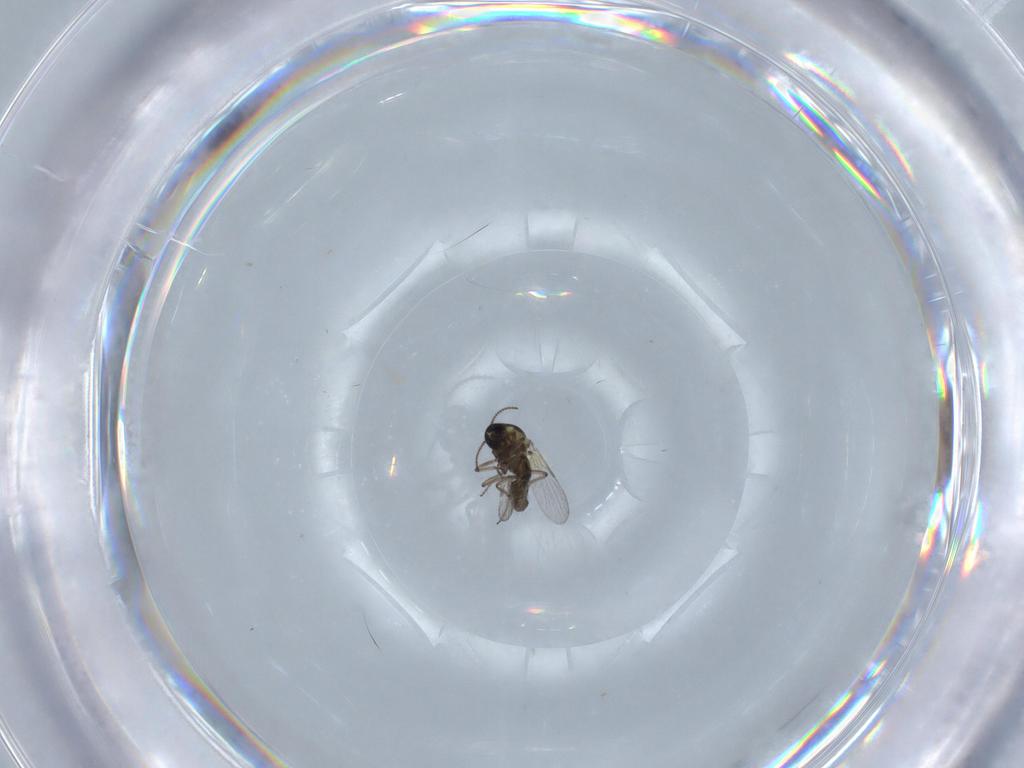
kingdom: Animalia
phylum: Arthropoda
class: Insecta
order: Diptera
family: Ceratopogonidae
